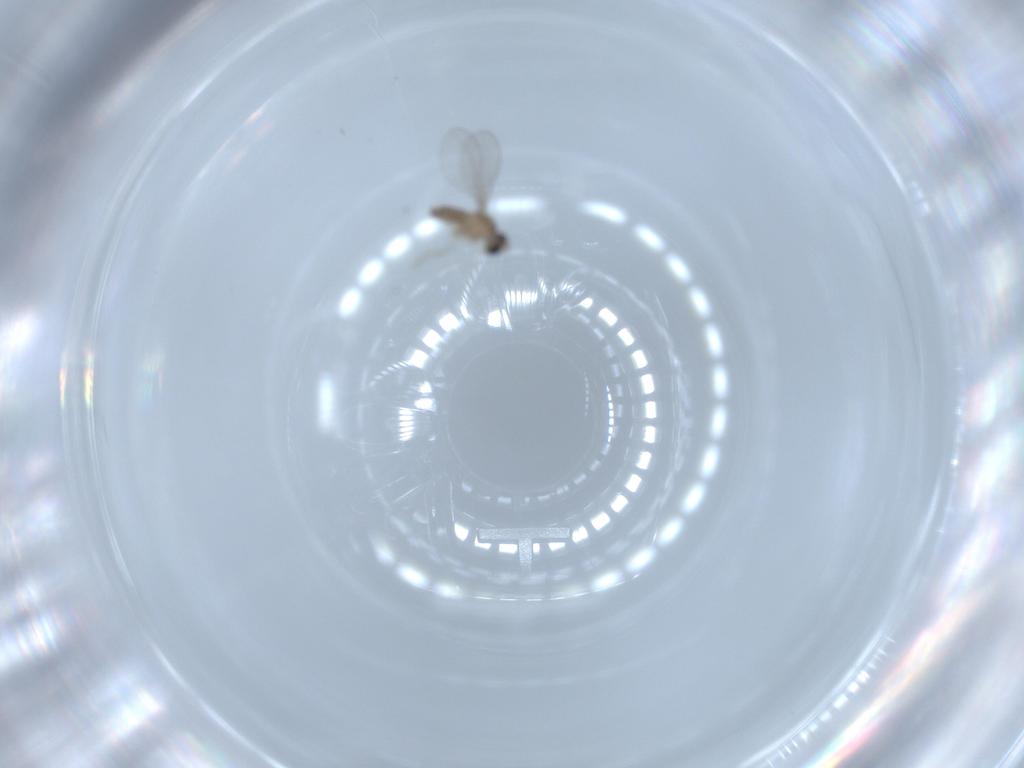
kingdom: Animalia
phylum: Arthropoda
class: Insecta
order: Diptera
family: Cecidomyiidae
